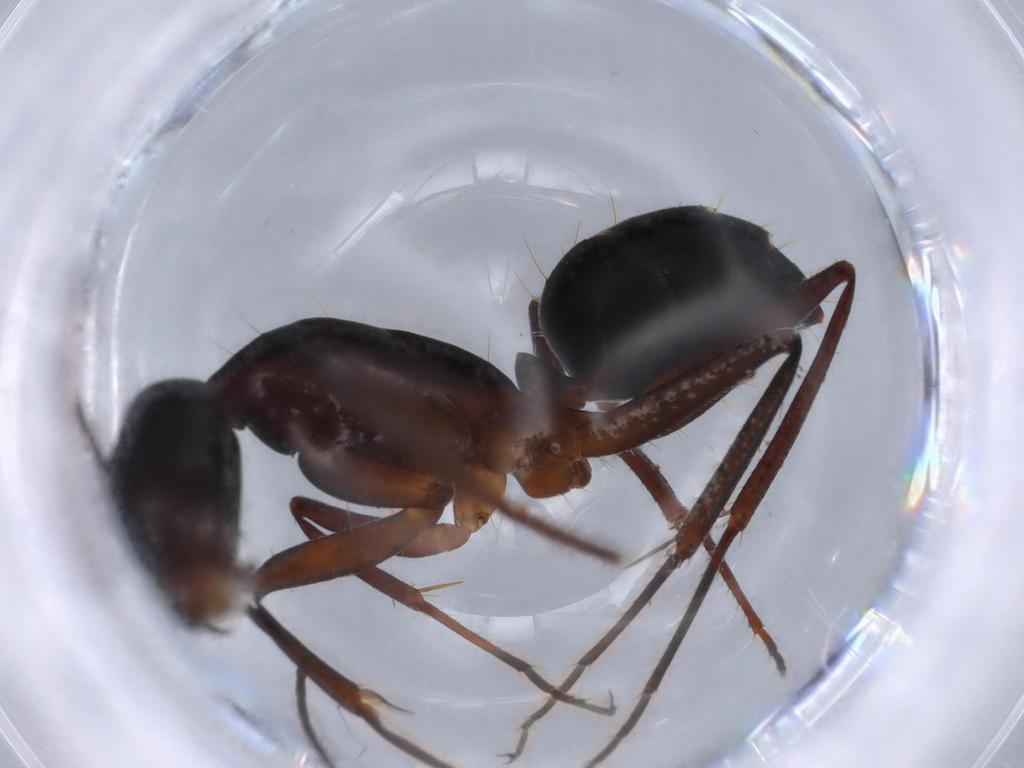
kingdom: Animalia
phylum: Arthropoda
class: Insecta
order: Hymenoptera
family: Formicidae
